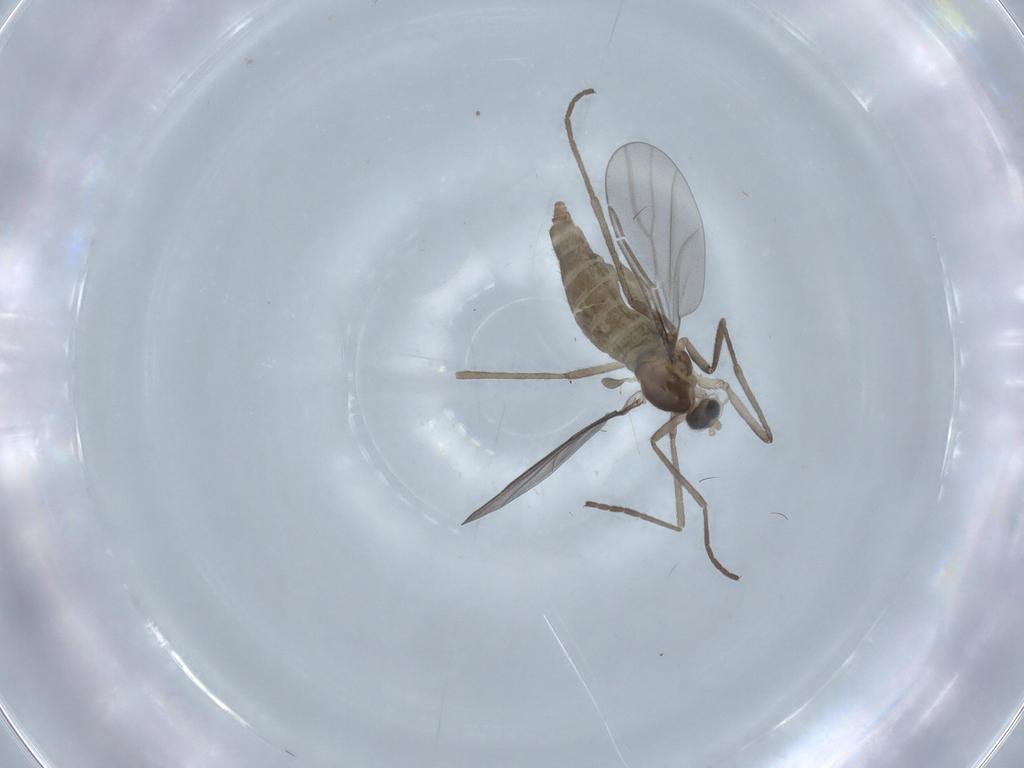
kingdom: Animalia
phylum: Arthropoda
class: Insecta
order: Diptera
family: Dolichopodidae
